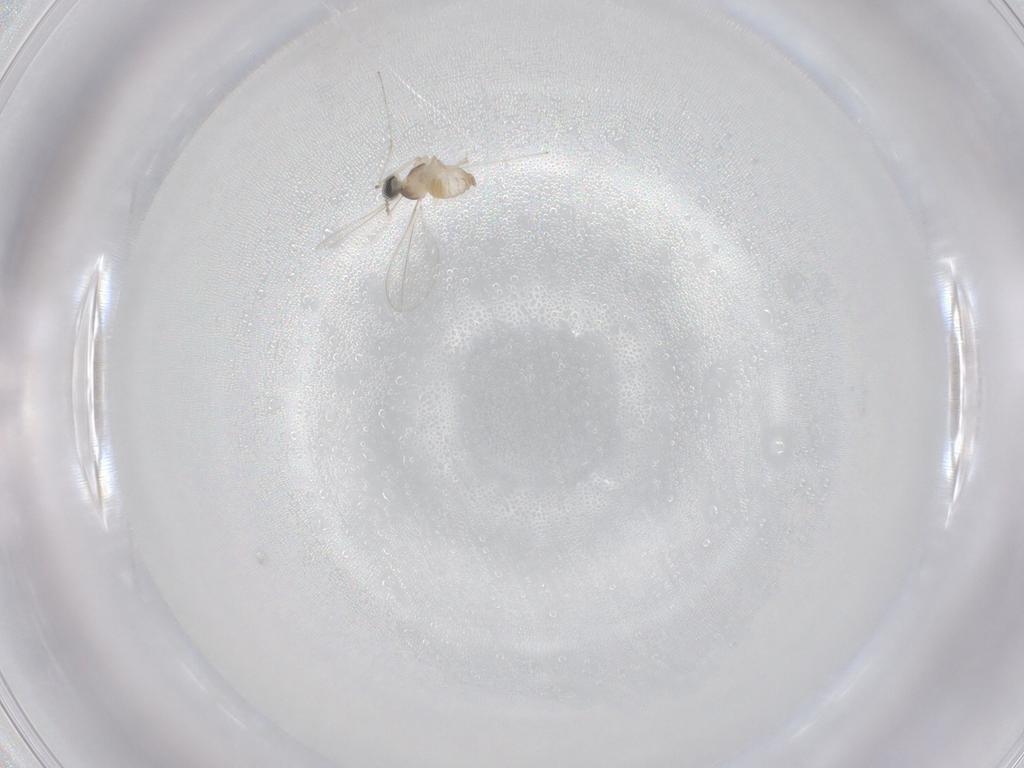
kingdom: Animalia
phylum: Arthropoda
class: Insecta
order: Diptera
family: Cecidomyiidae
